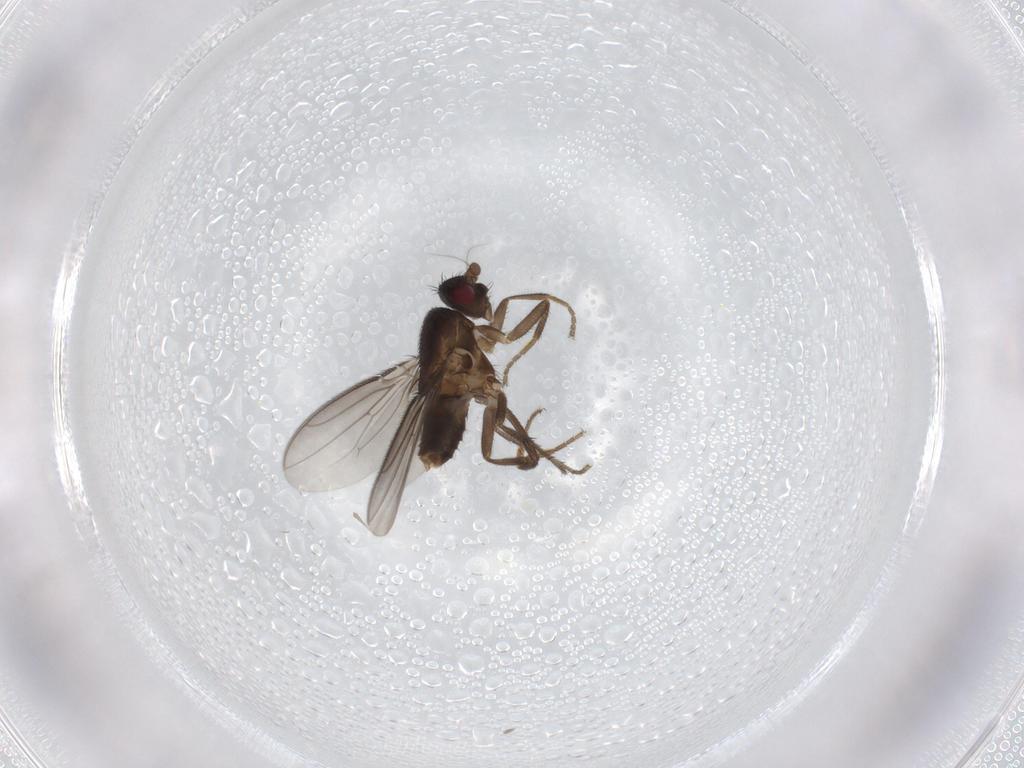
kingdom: Animalia
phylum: Arthropoda
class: Insecta
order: Diptera
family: Sphaeroceridae
